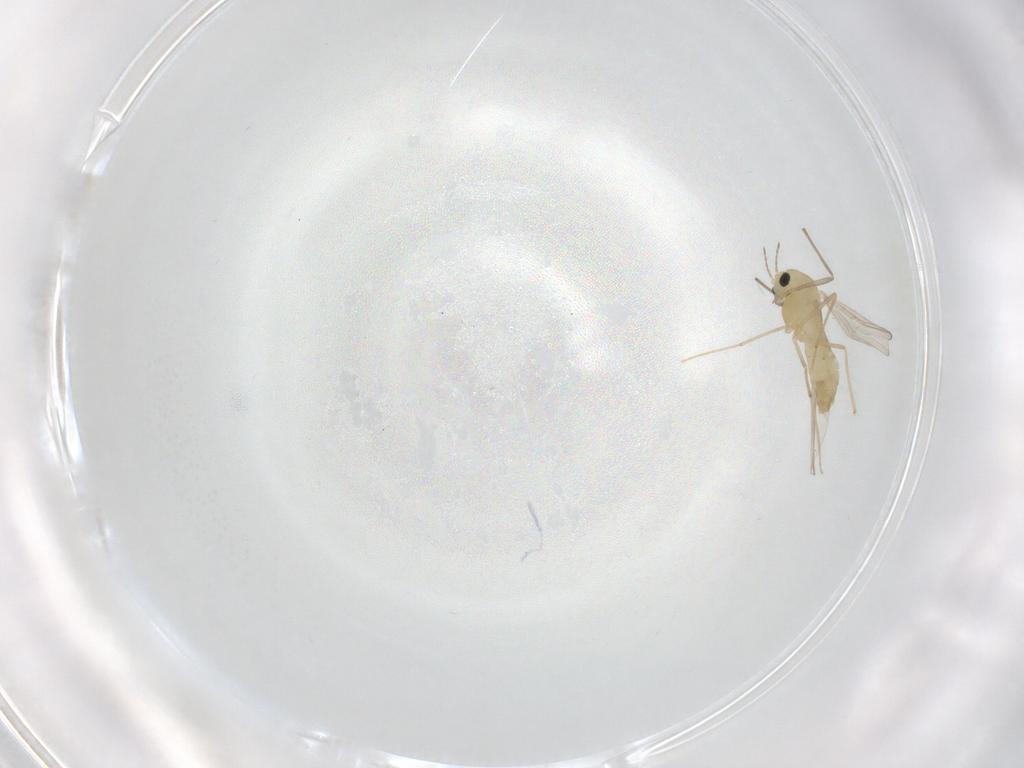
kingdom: Animalia
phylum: Arthropoda
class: Insecta
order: Diptera
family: Chironomidae
